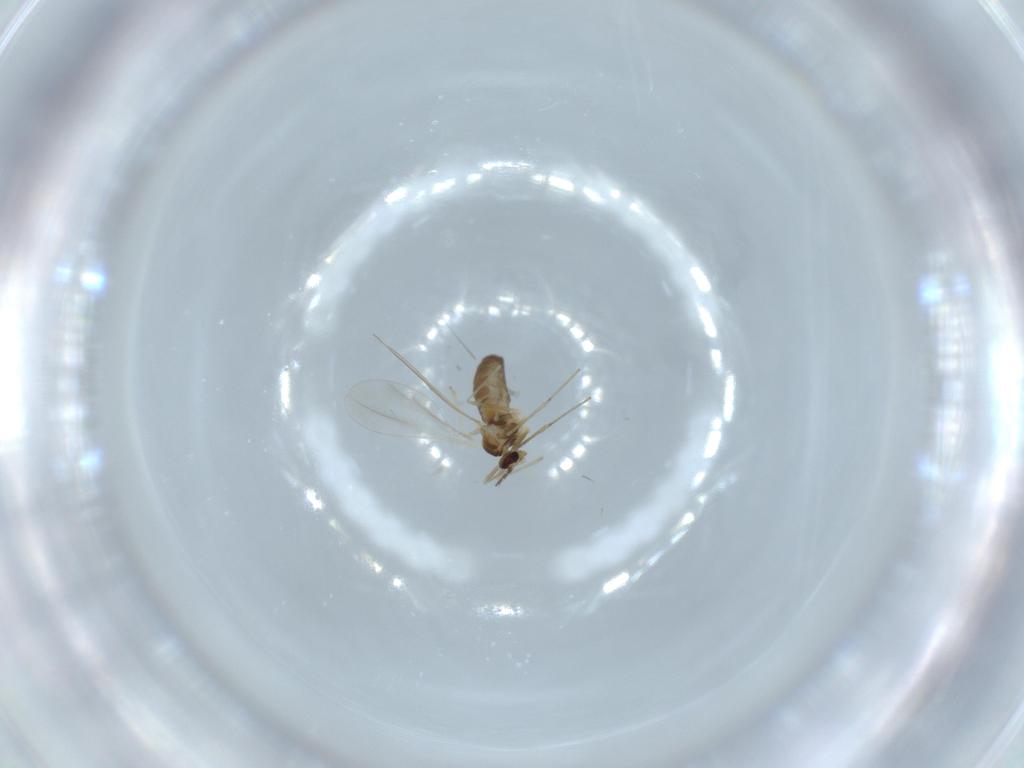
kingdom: Animalia
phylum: Arthropoda
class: Insecta
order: Diptera
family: Cecidomyiidae
